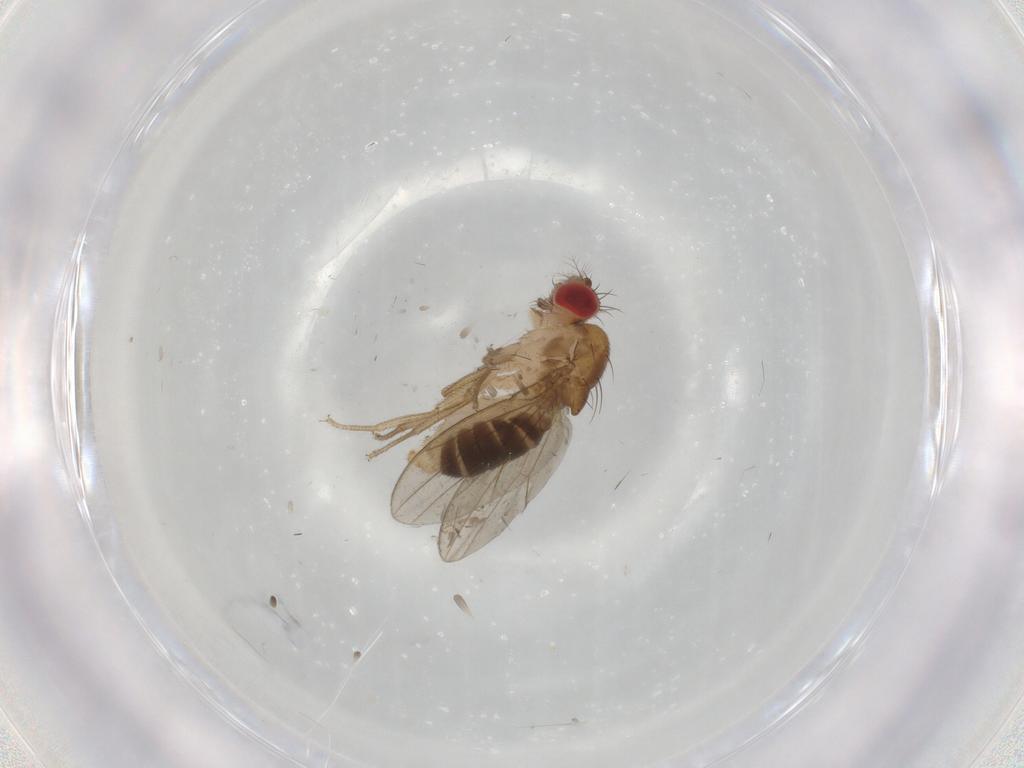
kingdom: Animalia
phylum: Arthropoda
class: Insecta
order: Diptera
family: Drosophilidae
